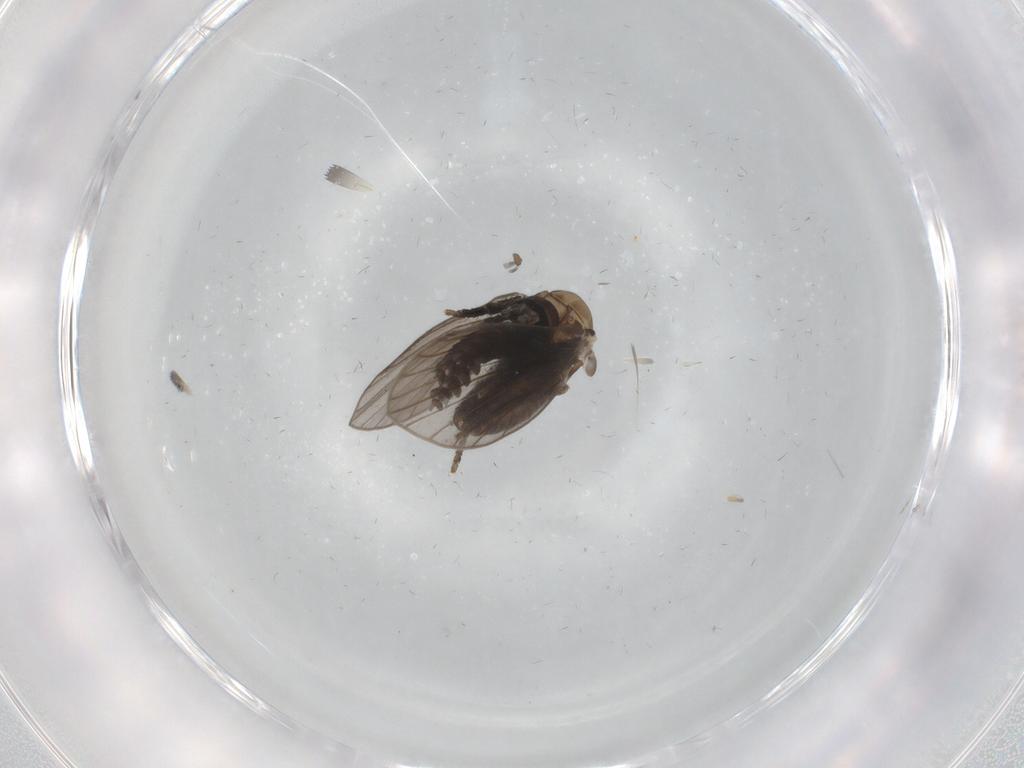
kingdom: Animalia
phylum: Arthropoda
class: Insecta
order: Diptera
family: Psychodidae
